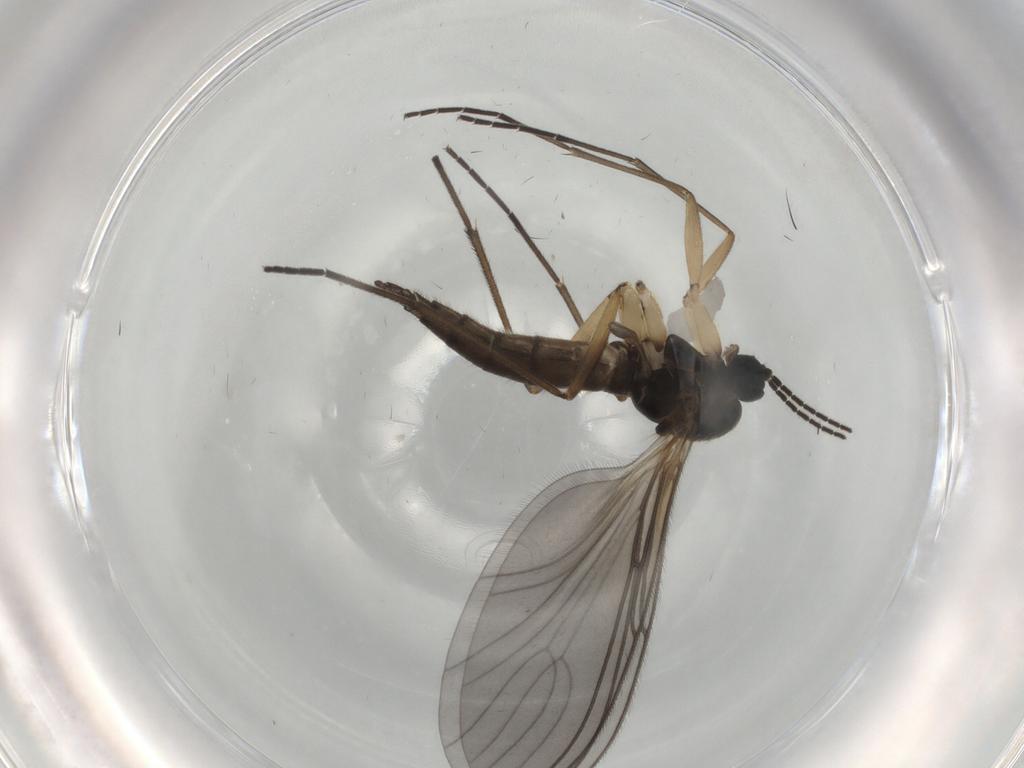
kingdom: Animalia
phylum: Arthropoda
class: Insecta
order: Diptera
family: Sciaridae
